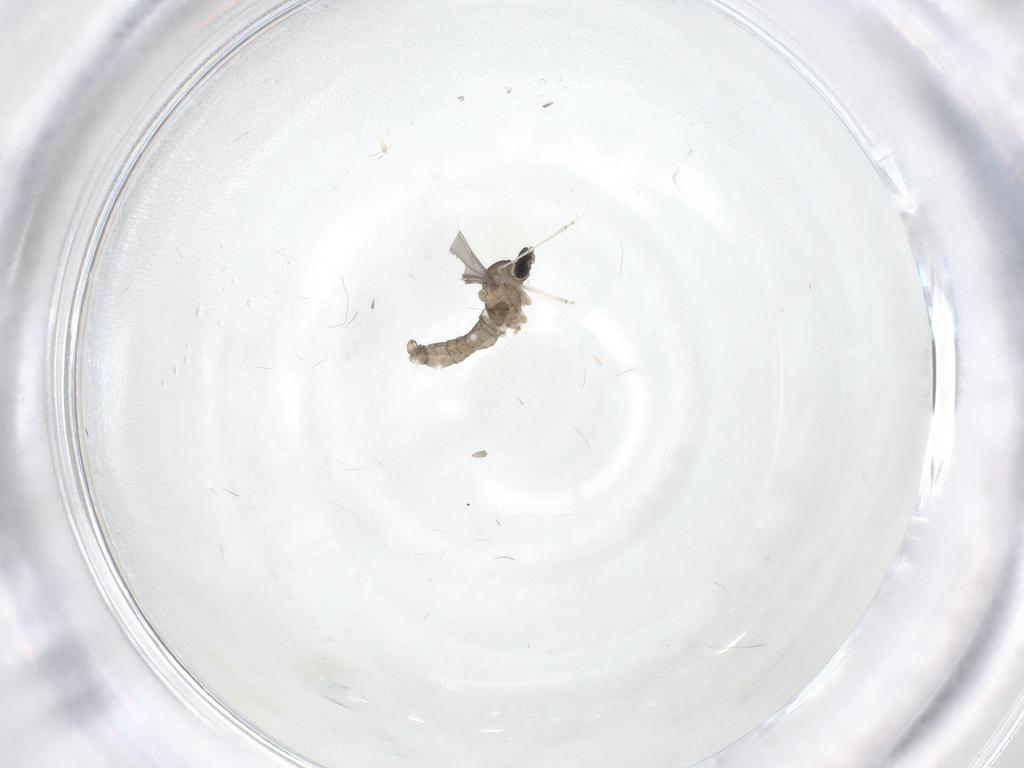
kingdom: Animalia
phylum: Arthropoda
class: Insecta
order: Diptera
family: Cecidomyiidae
